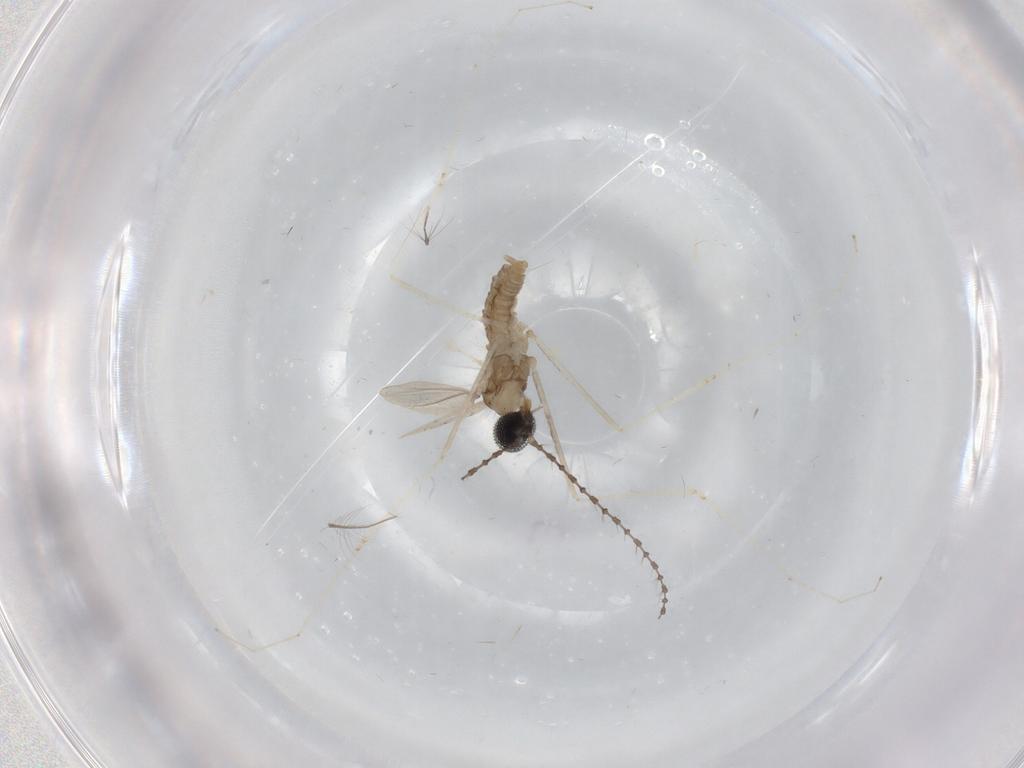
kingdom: Animalia
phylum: Arthropoda
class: Insecta
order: Diptera
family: Cecidomyiidae
